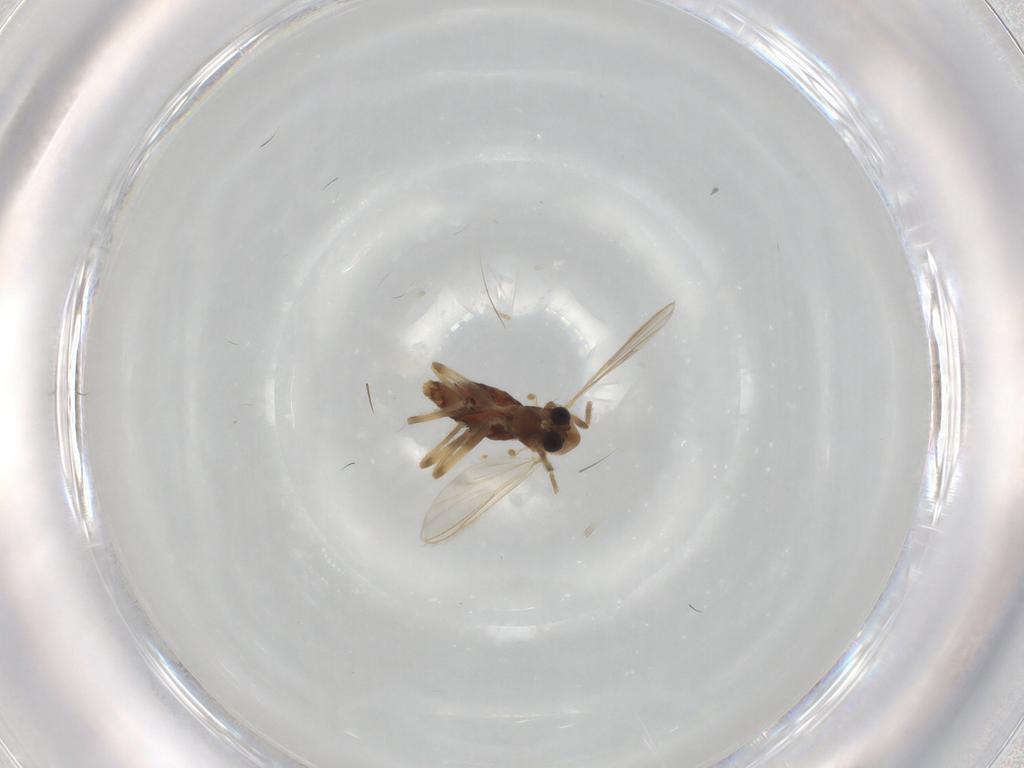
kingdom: Animalia
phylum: Arthropoda
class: Insecta
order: Diptera
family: Chironomidae
